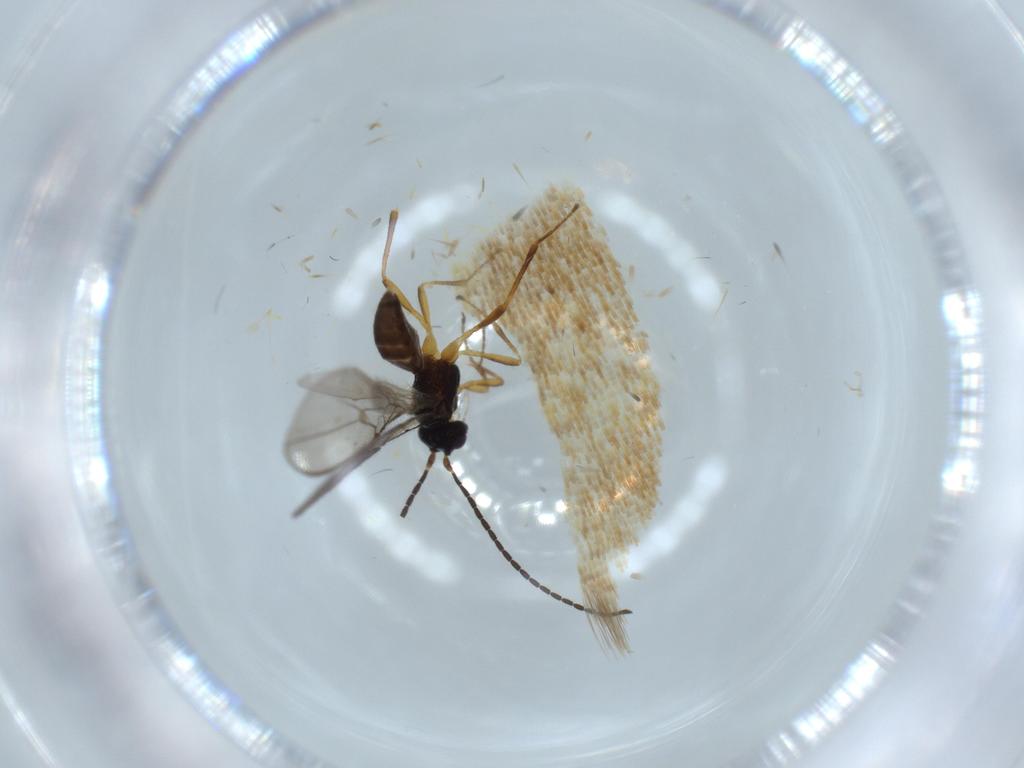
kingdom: Animalia
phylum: Arthropoda
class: Insecta
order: Hymenoptera
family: Braconidae
